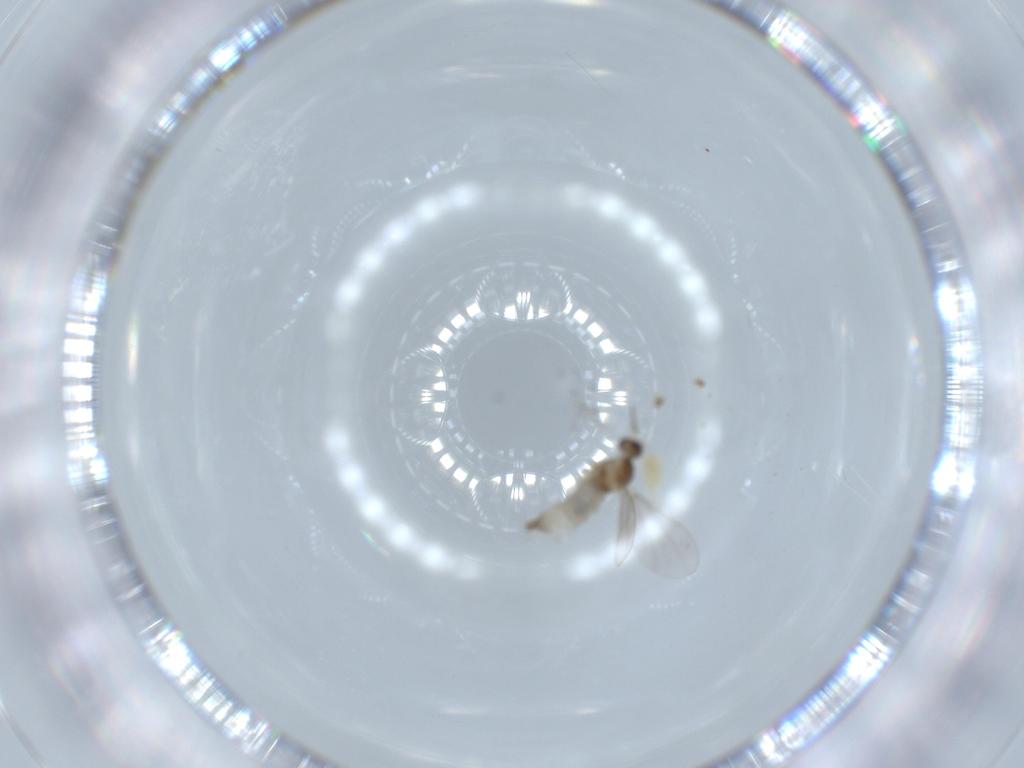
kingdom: Animalia
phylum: Arthropoda
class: Insecta
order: Diptera
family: Cecidomyiidae
